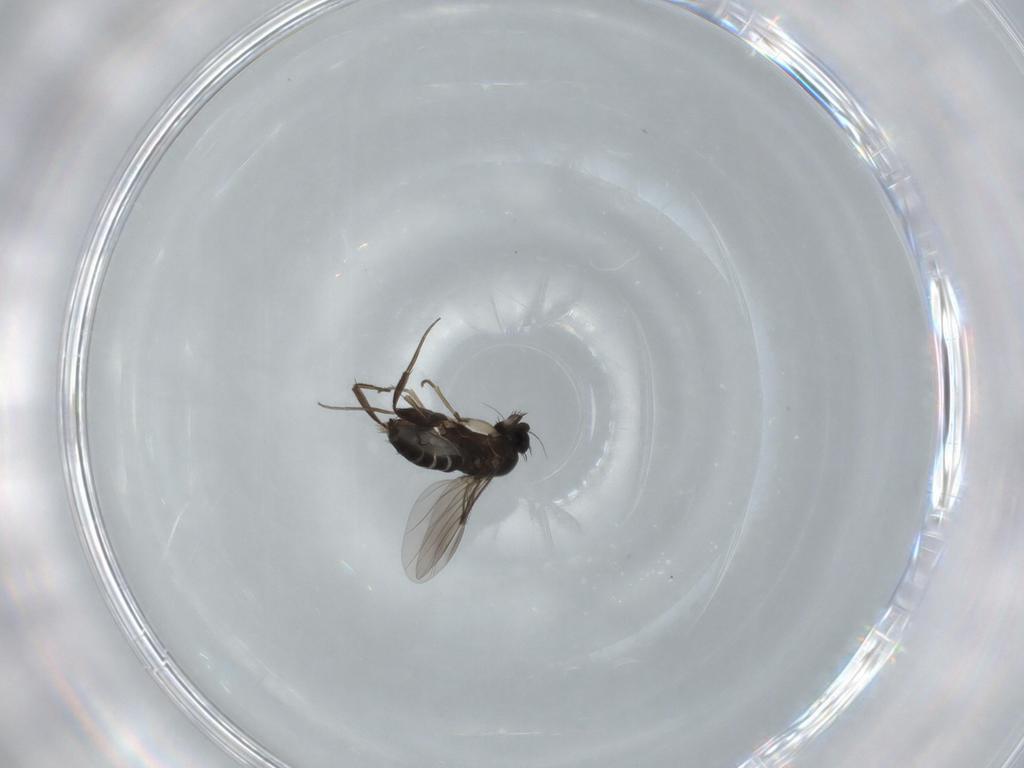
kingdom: Animalia
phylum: Arthropoda
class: Insecta
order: Diptera
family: Phoridae
